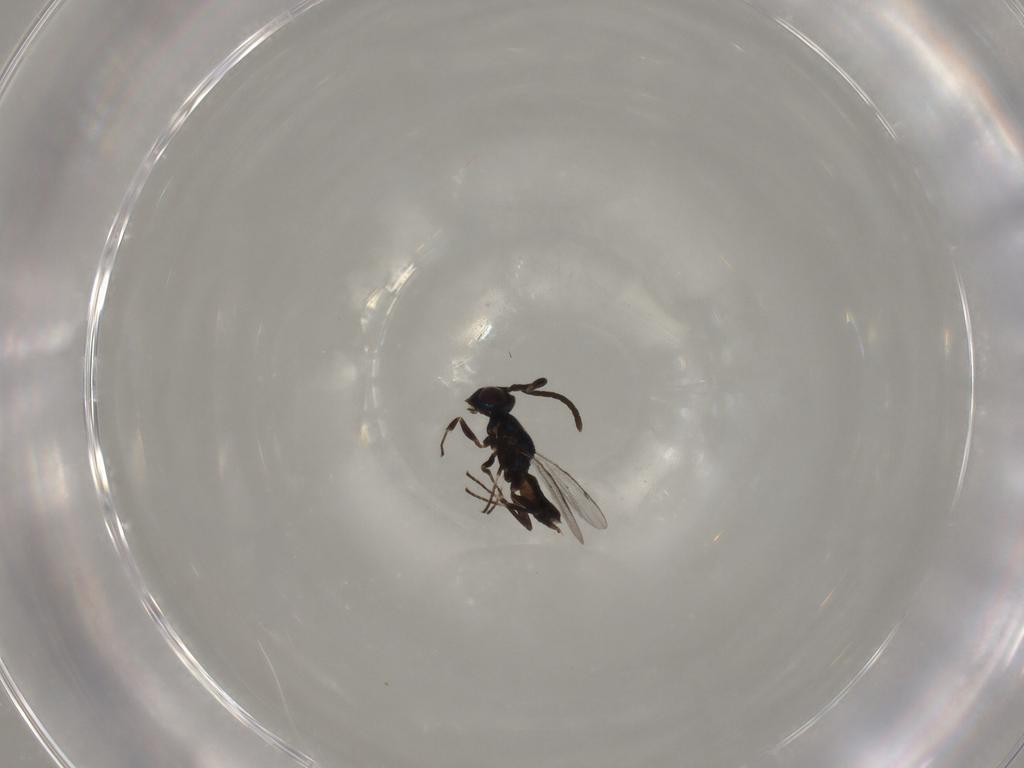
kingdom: Animalia
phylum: Arthropoda
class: Insecta
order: Hymenoptera
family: Eupelmidae
